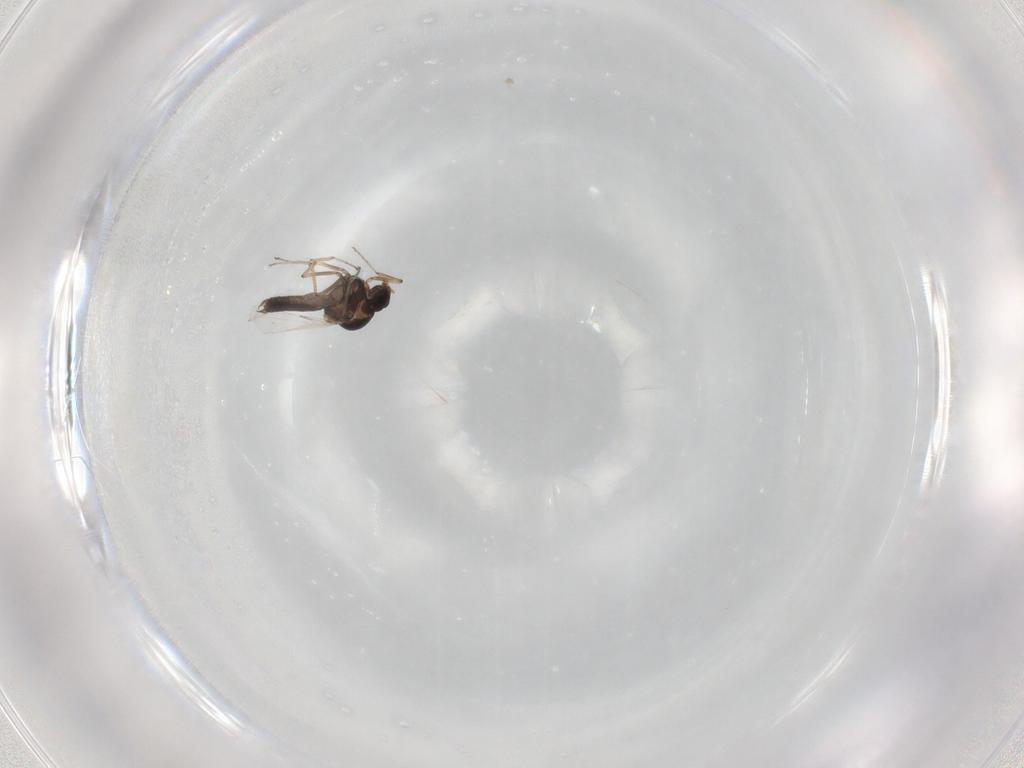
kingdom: Animalia
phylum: Arthropoda
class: Insecta
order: Diptera
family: Ceratopogonidae
